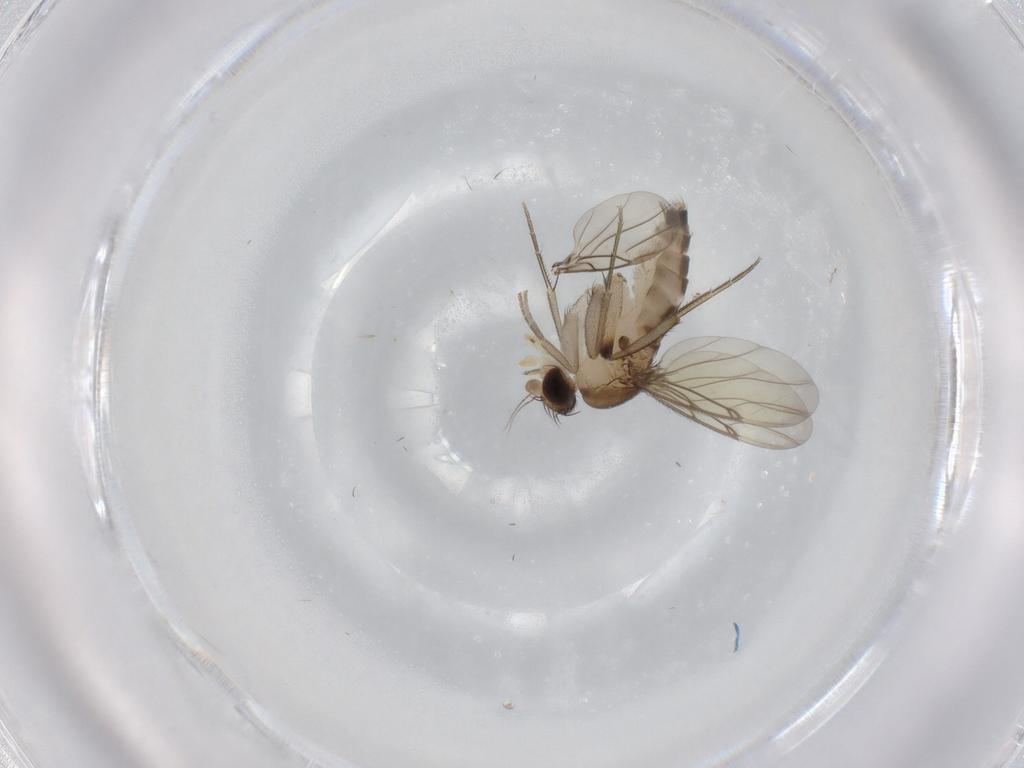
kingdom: Animalia
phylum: Arthropoda
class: Insecta
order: Diptera
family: Phoridae
